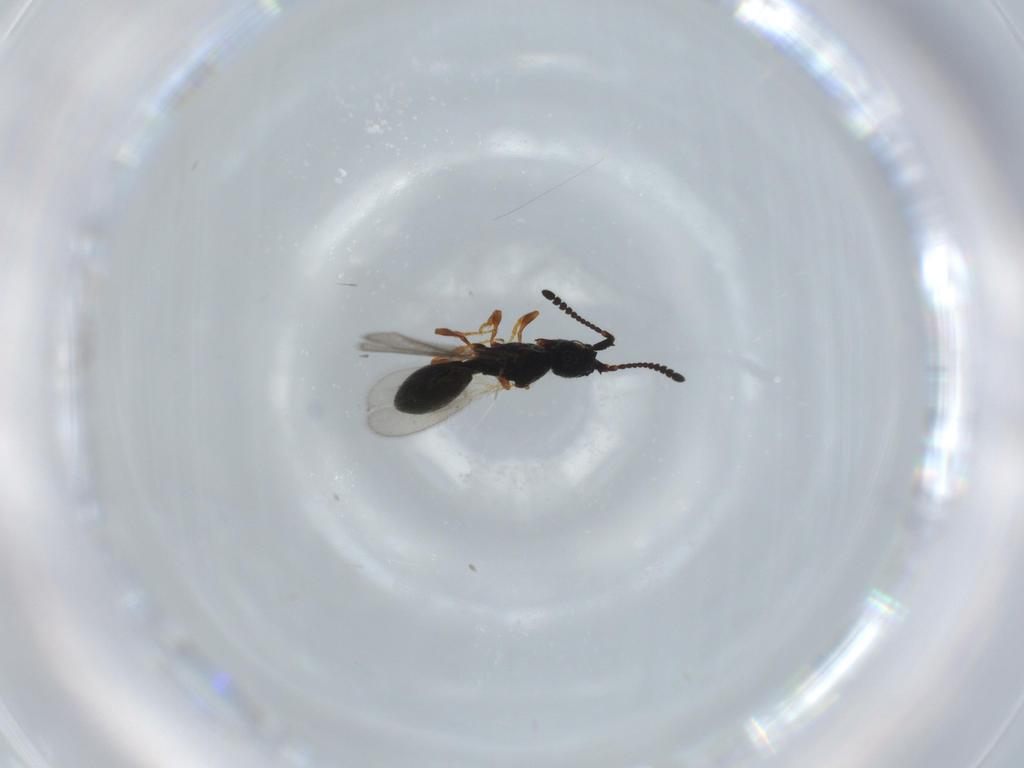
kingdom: Animalia
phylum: Arthropoda
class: Insecta
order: Hymenoptera
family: Diapriidae
